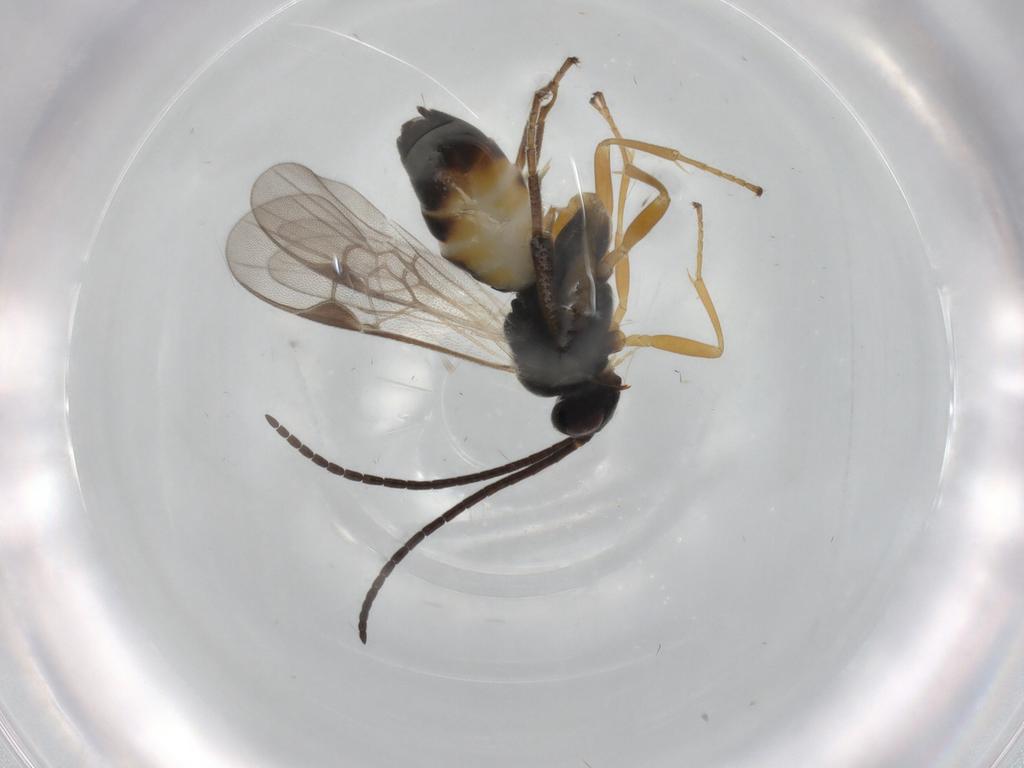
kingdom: Animalia
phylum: Arthropoda
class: Insecta
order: Hymenoptera
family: Braconidae
